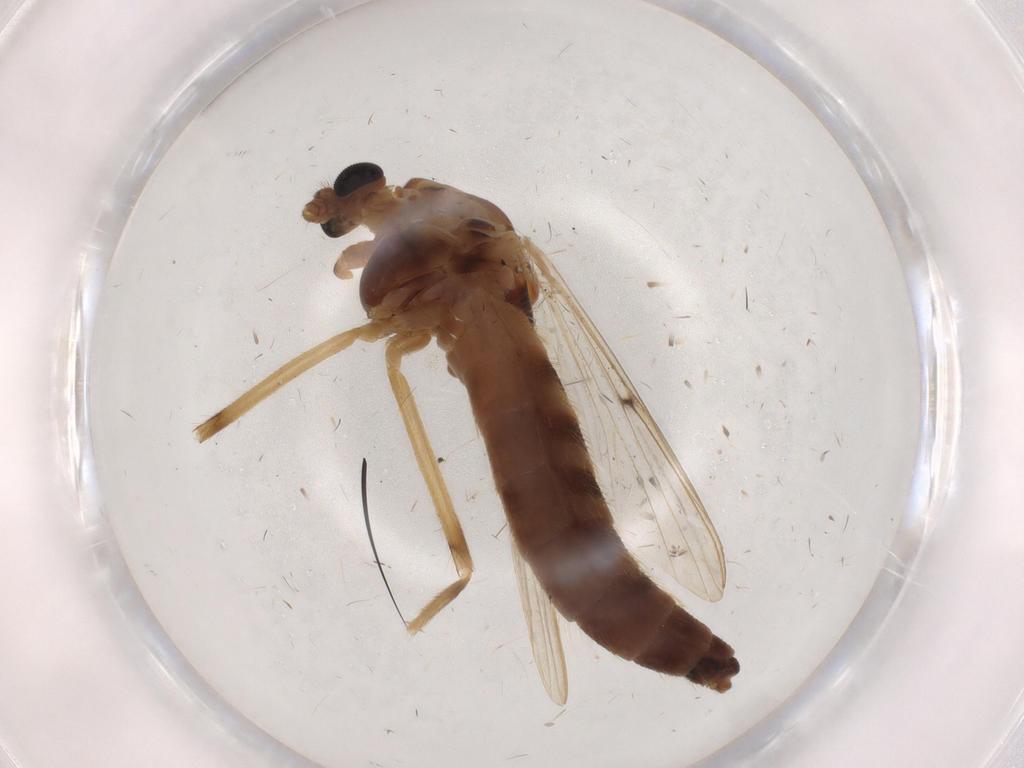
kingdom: Animalia
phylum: Arthropoda
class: Insecta
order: Diptera
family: Chironomidae
